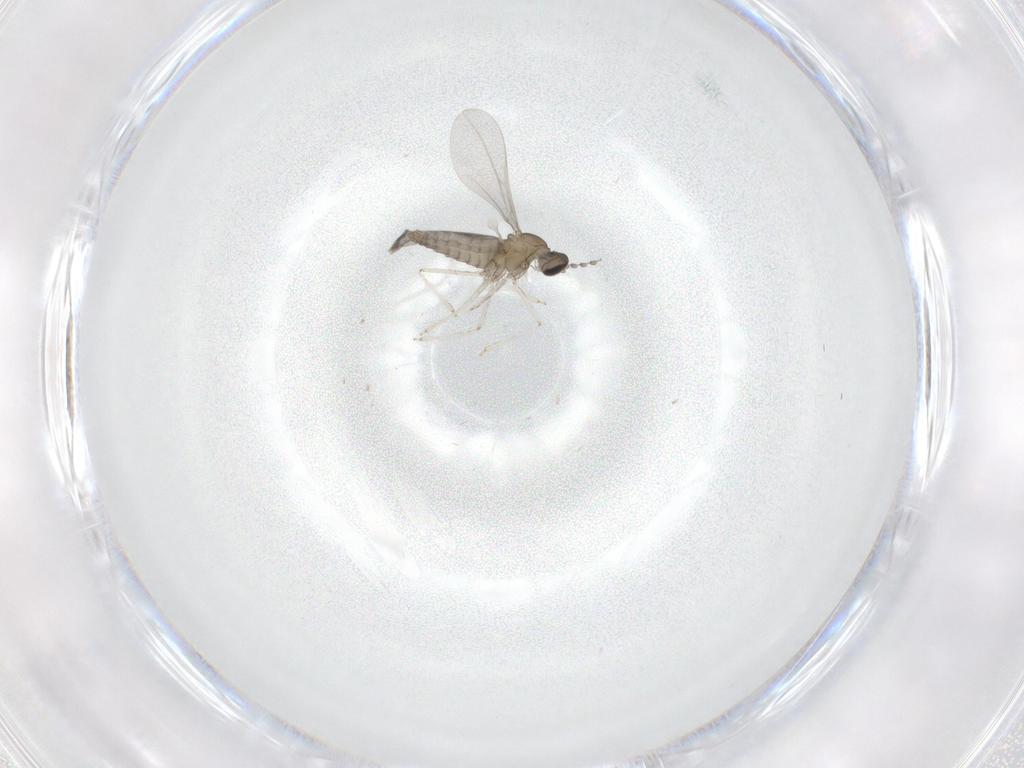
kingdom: Animalia
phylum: Arthropoda
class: Insecta
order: Diptera
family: Tabanidae
